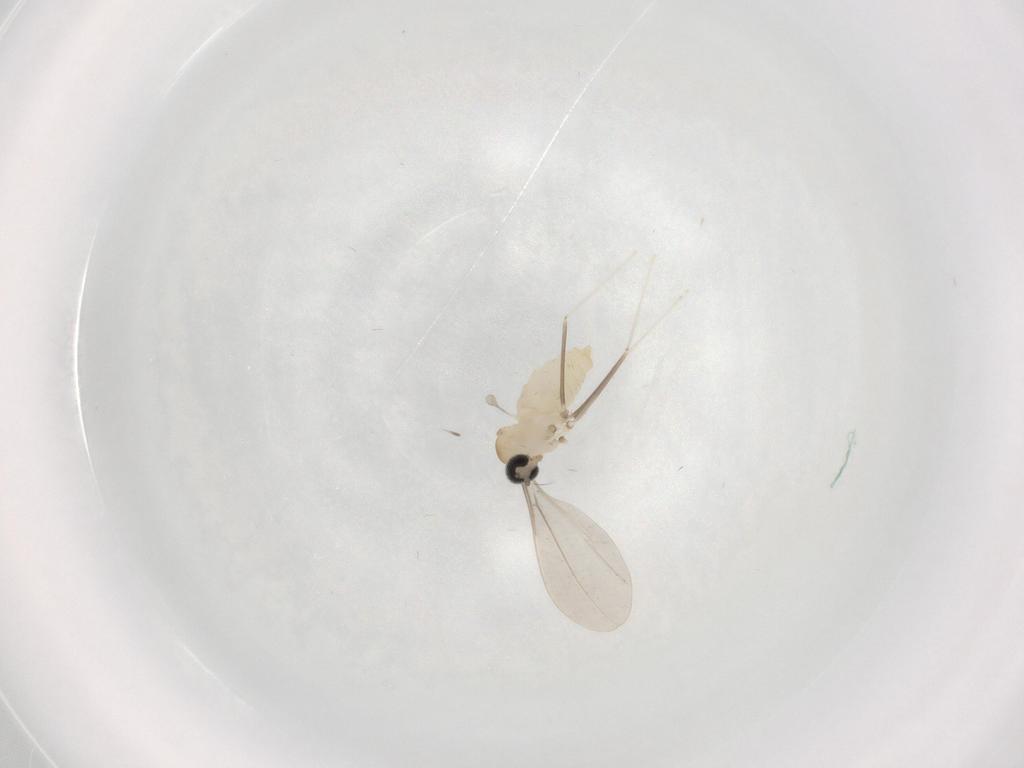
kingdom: Animalia
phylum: Arthropoda
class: Insecta
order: Diptera
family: Cecidomyiidae
